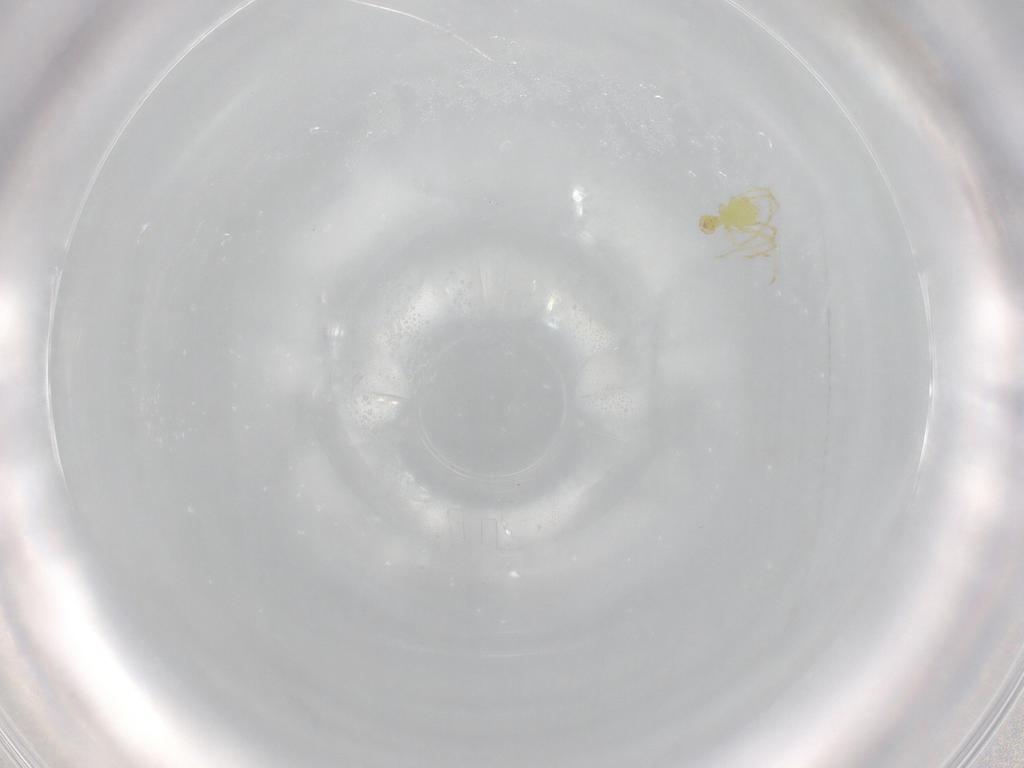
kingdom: Animalia
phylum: Arthropoda
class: Arachnida
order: Trombidiformes
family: Erythraeidae
